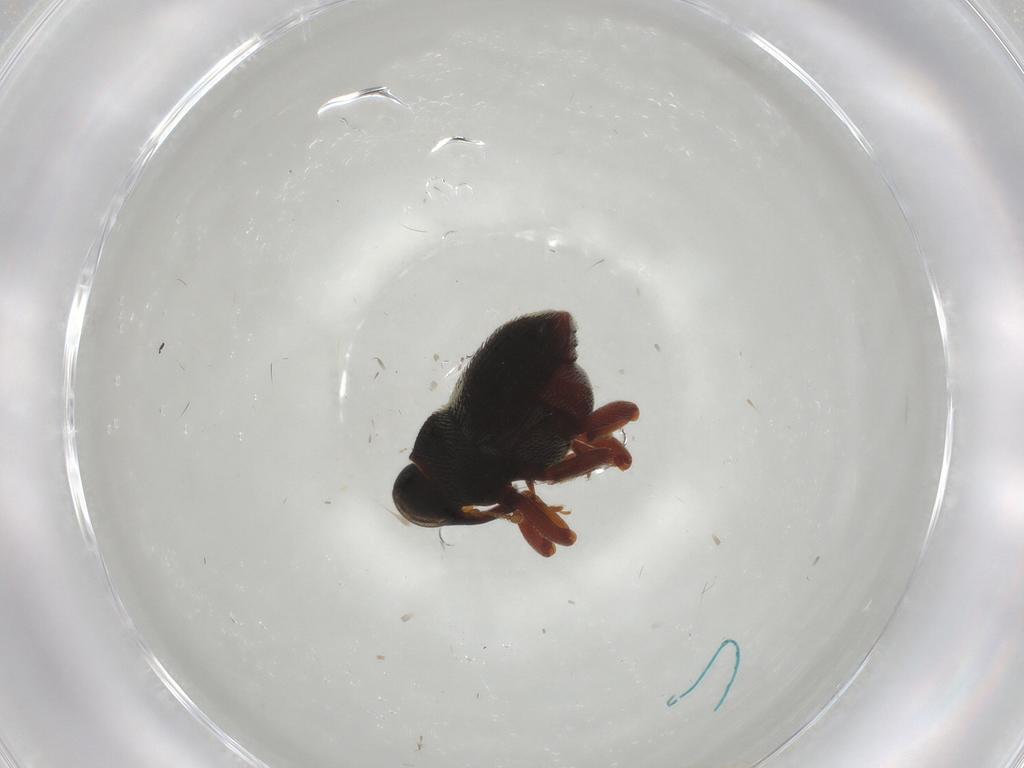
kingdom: Animalia
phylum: Arthropoda
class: Insecta
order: Coleoptera
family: Curculionidae
